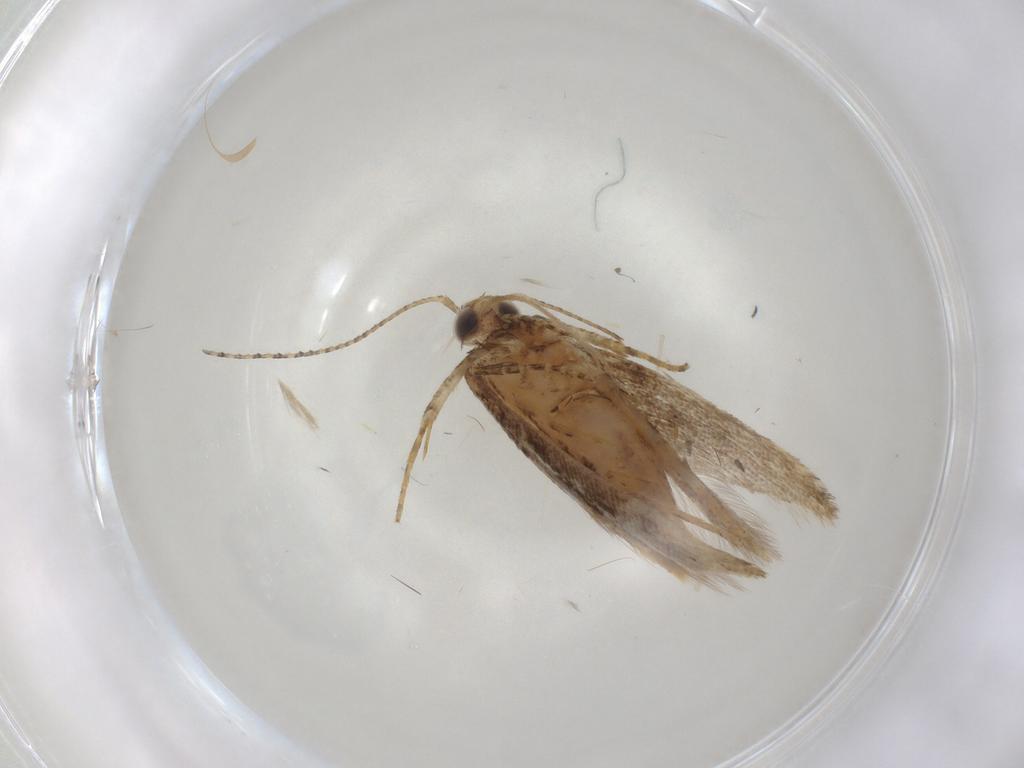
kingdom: Animalia
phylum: Arthropoda
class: Insecta
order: Lepidoptera
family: Gelechiidae
